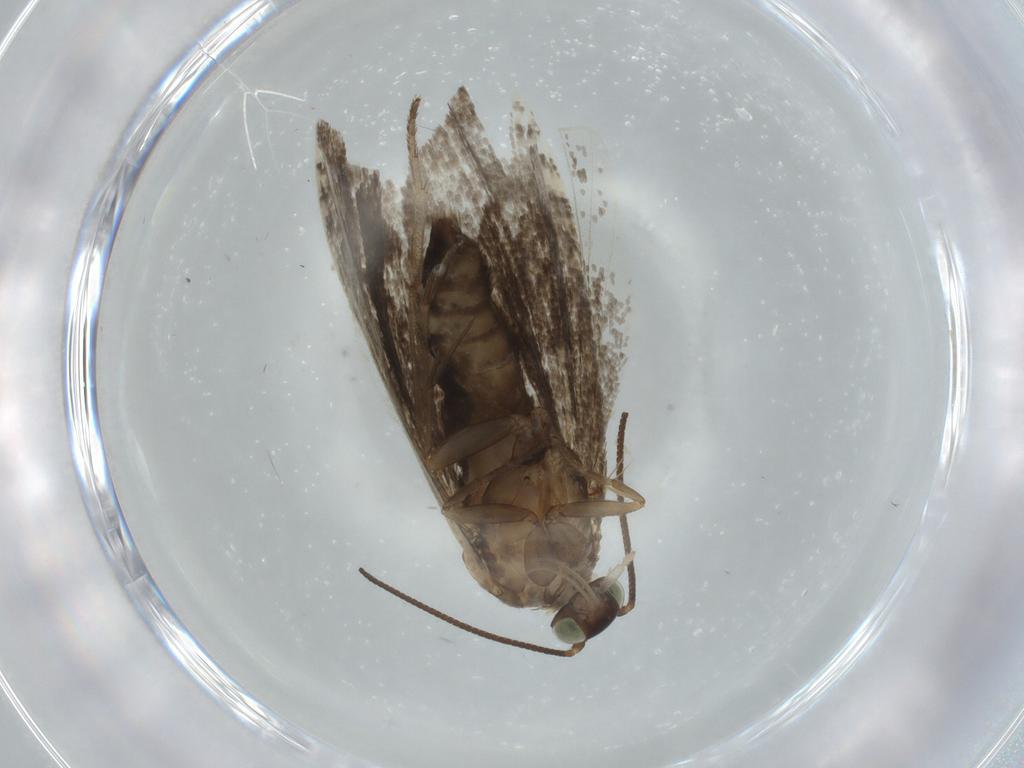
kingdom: Animalia
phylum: Arthropoda
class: Insecta
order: Lepidoptera
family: Tortricidae
